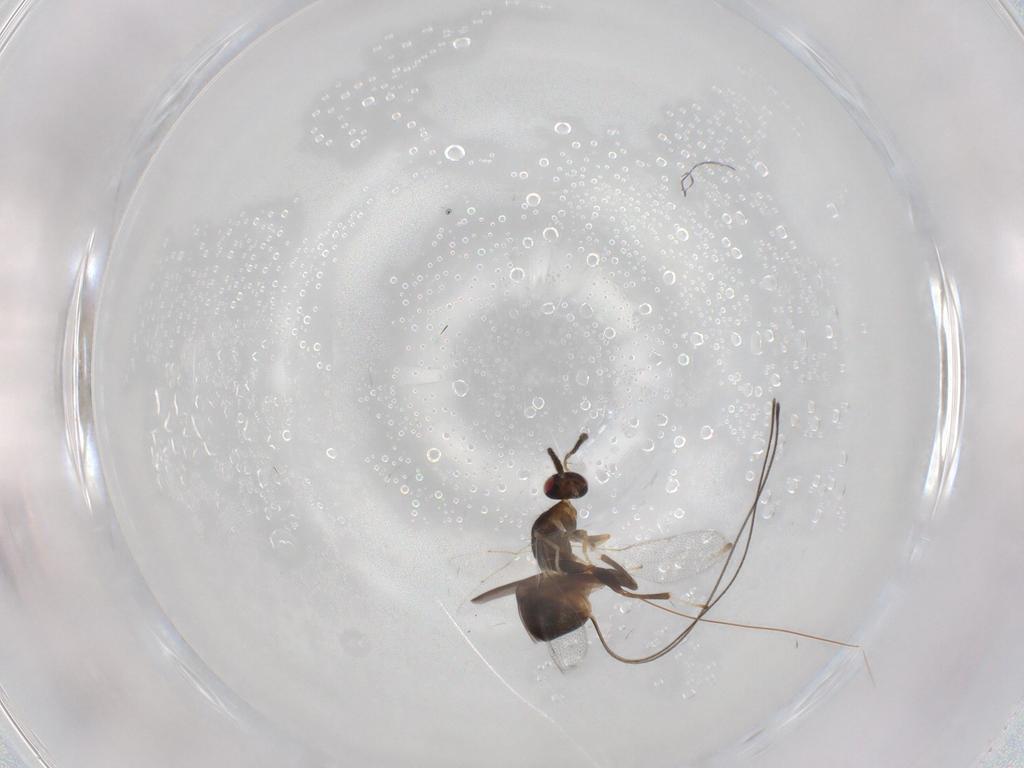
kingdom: Animalia
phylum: Arthropoda
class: Insecta
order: Hymenoptera
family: Torymidae
